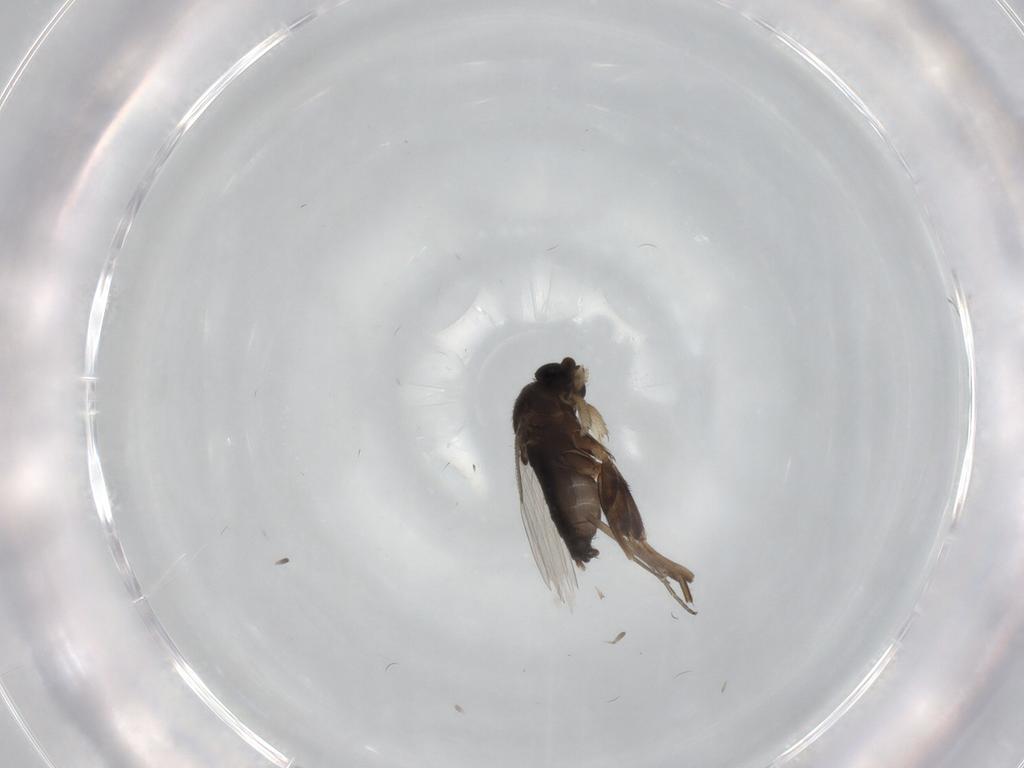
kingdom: Animalia
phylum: Arthropoda
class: Insecta
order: Diptera
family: Phoridae
